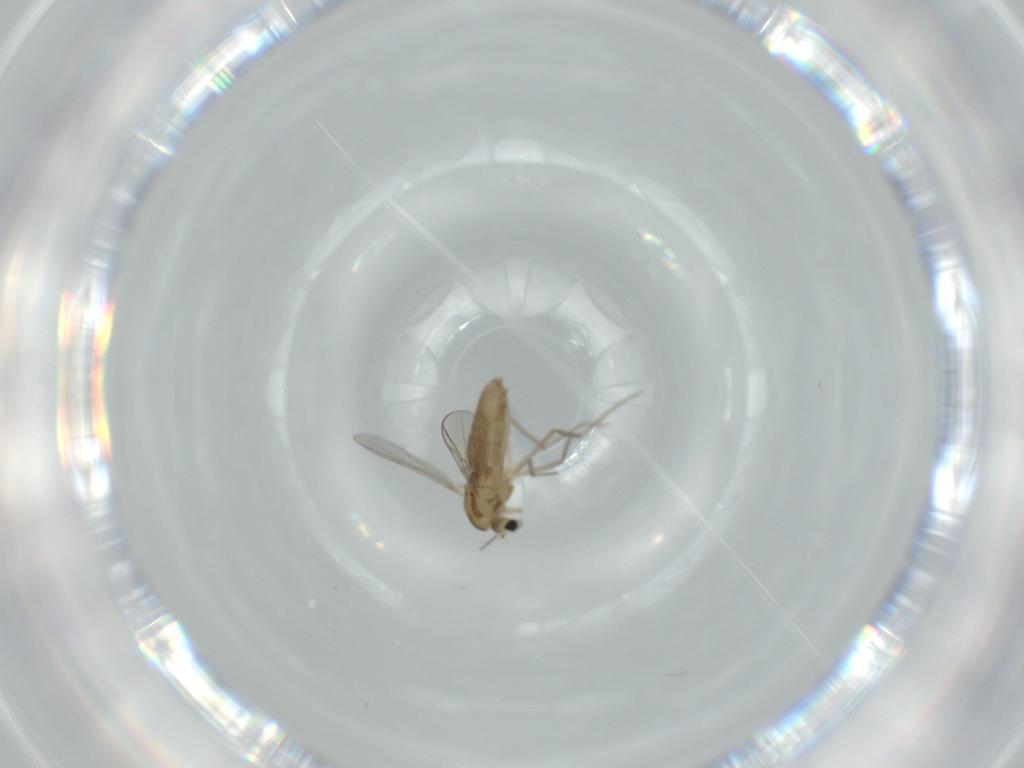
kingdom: Animalia
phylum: Arthropoda
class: Insecta
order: Diptera
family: Chironomidae
